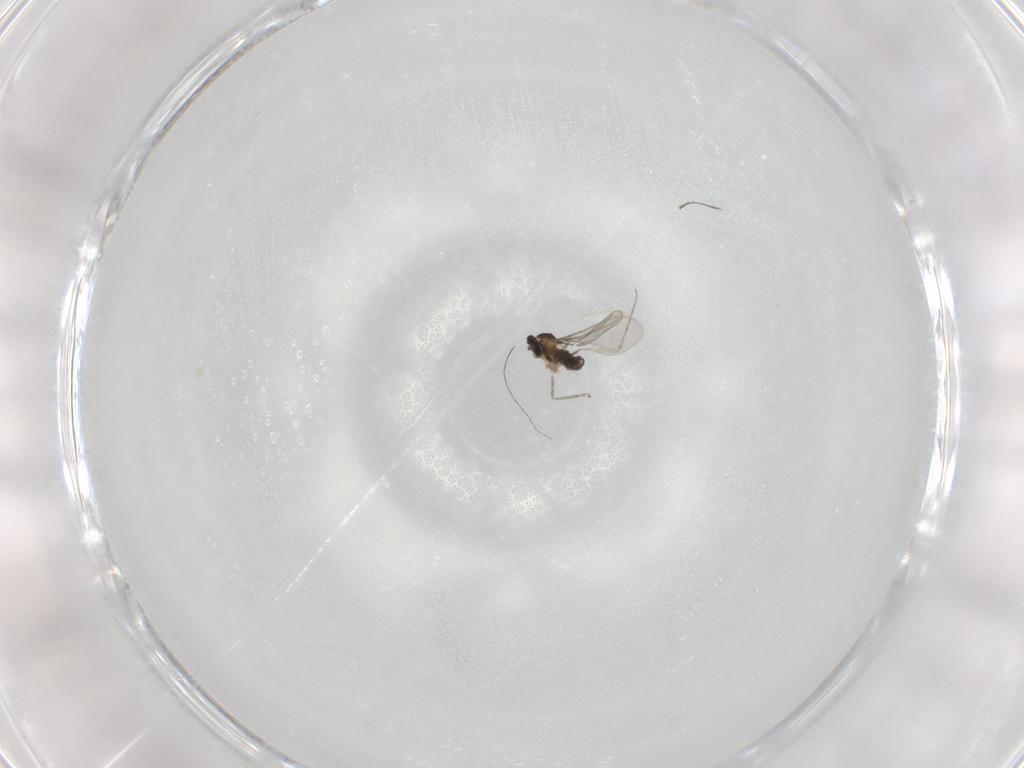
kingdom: Animalia
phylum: Arthropoda
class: Insecta
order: Diptera
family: Cecidomyiidae
